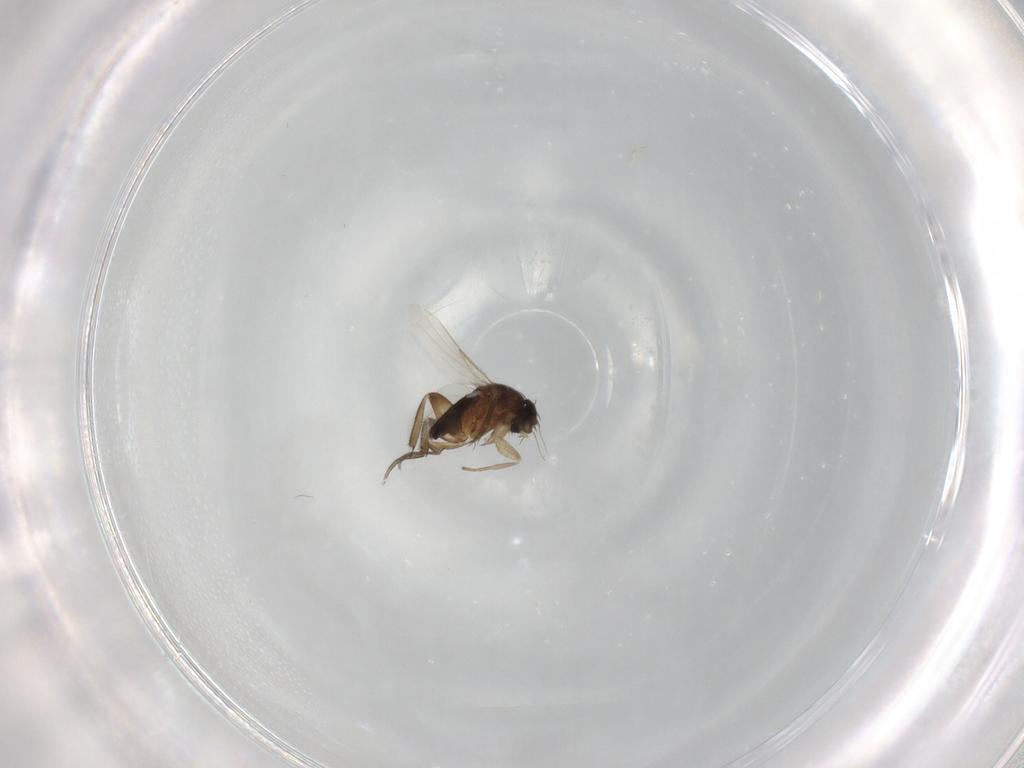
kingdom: Animalia
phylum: Arthropoda
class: Insecta
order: Diptera
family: Phoridae
